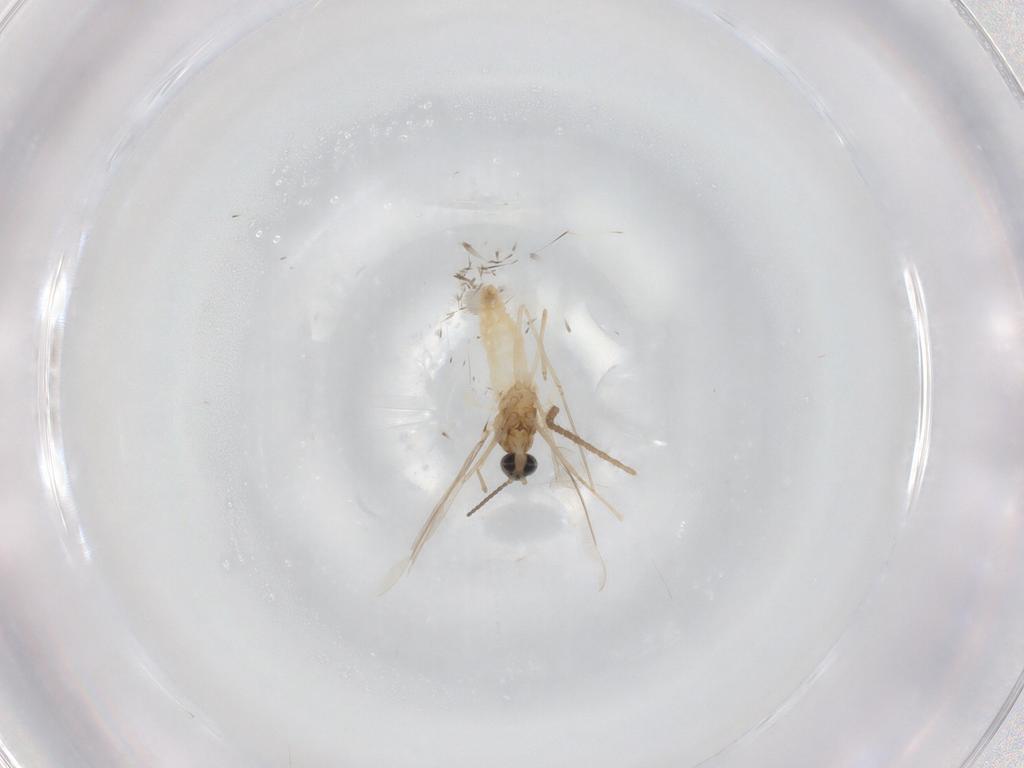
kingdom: Animalia
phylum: Arthropoda
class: Insecta
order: Diptera
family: Cecidomyiidae
